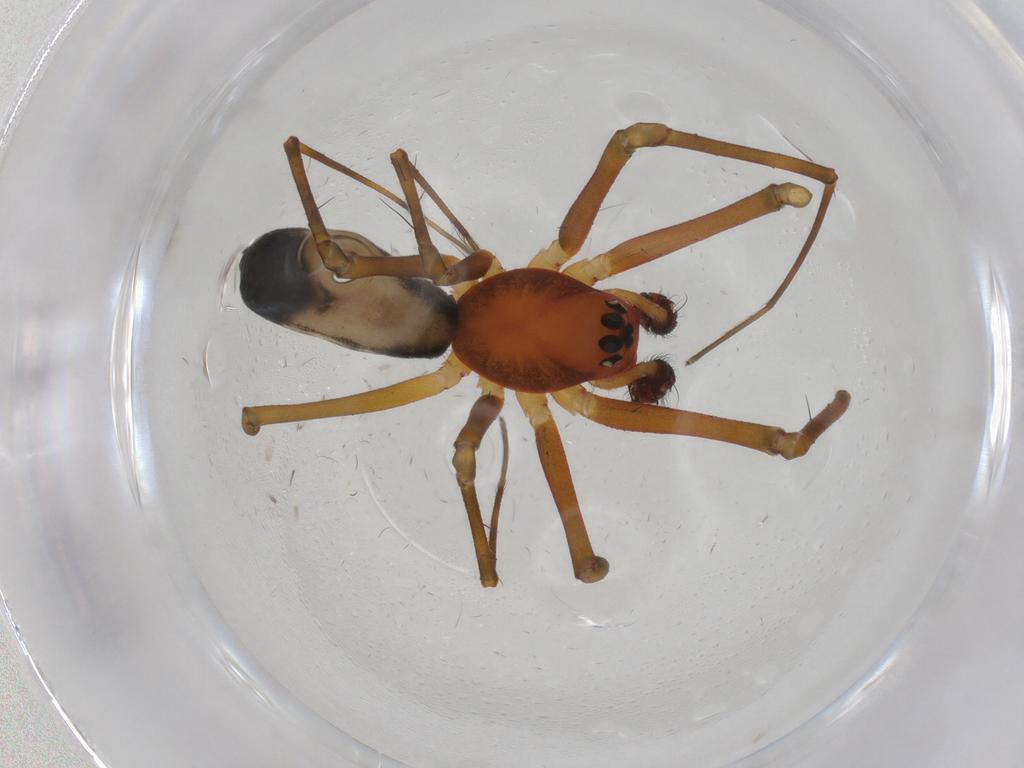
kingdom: Animalia
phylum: Arthropoda
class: Arachnida
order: Araneae
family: Linyphiidae
